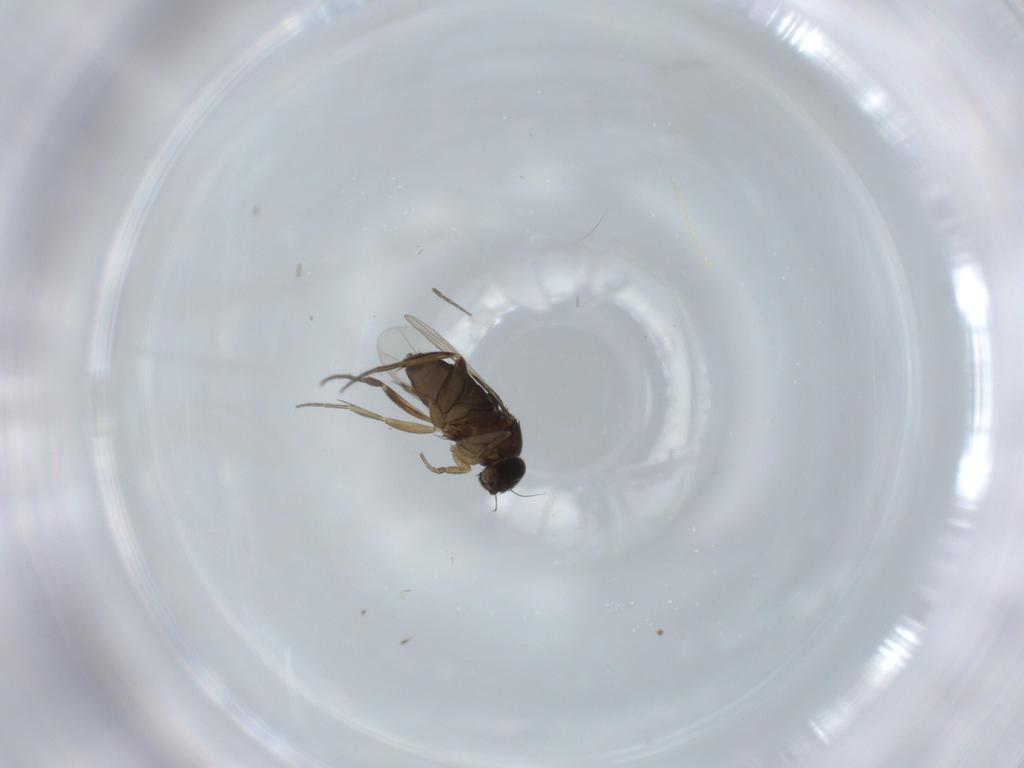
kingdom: Animalia
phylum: Arthropoda
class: Insecta
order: Diptera
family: Phoridae
